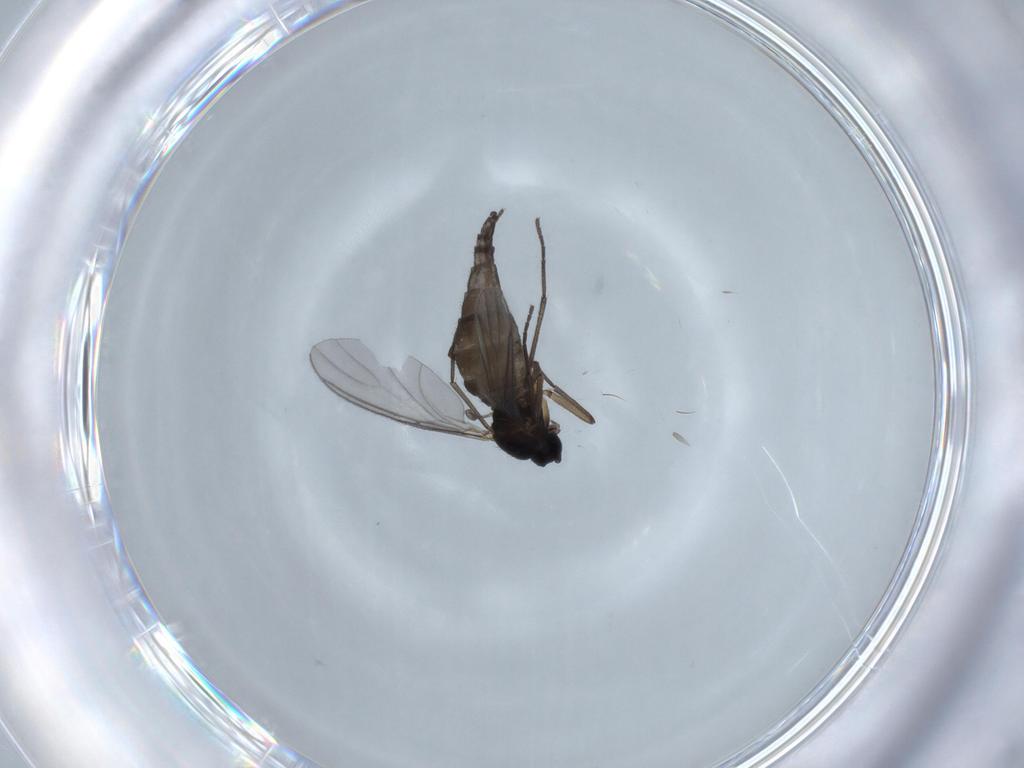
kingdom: Animalia
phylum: Arthropoda
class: Insecta
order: Diptera
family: Sciaridae
